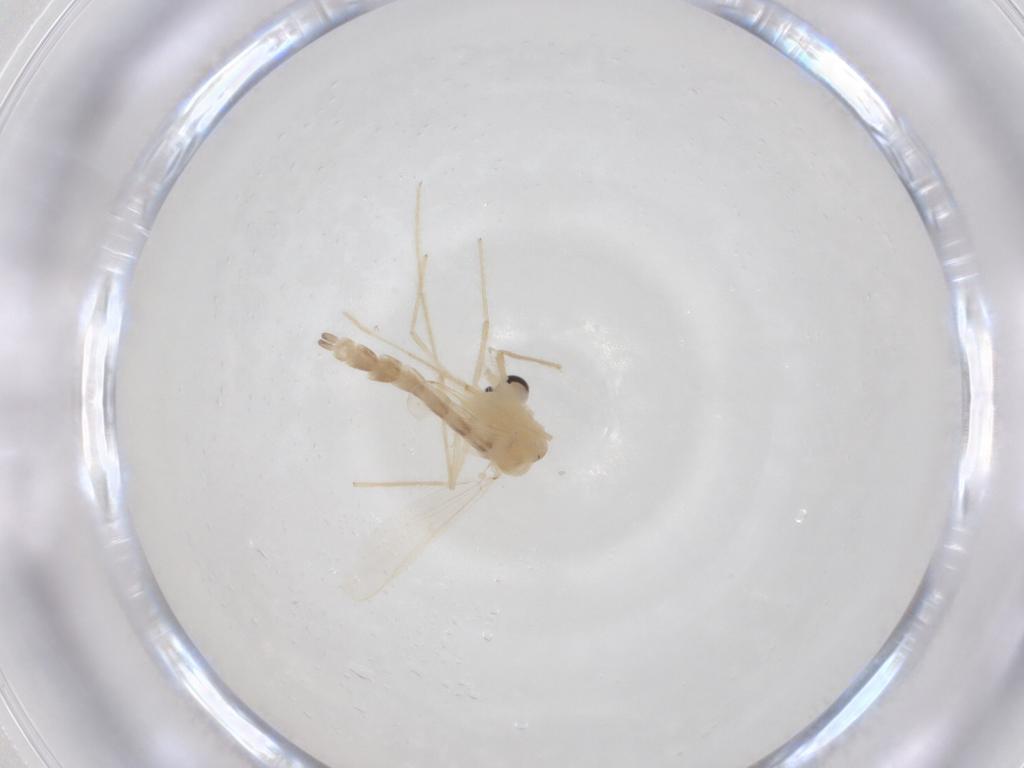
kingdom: Animalia
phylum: Arthropoda
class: Insecta
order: Diptera
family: Chironomidae
